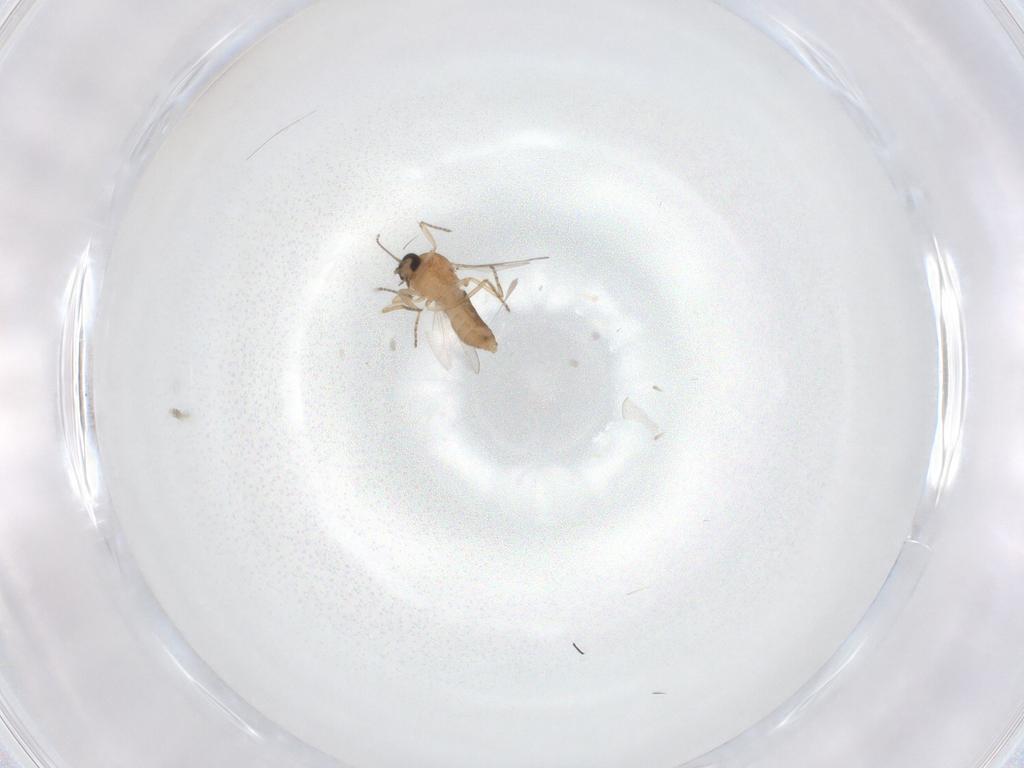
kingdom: Animalia
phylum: Arthropoda
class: Insecta
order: Diptera
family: Ceratopogonidae
